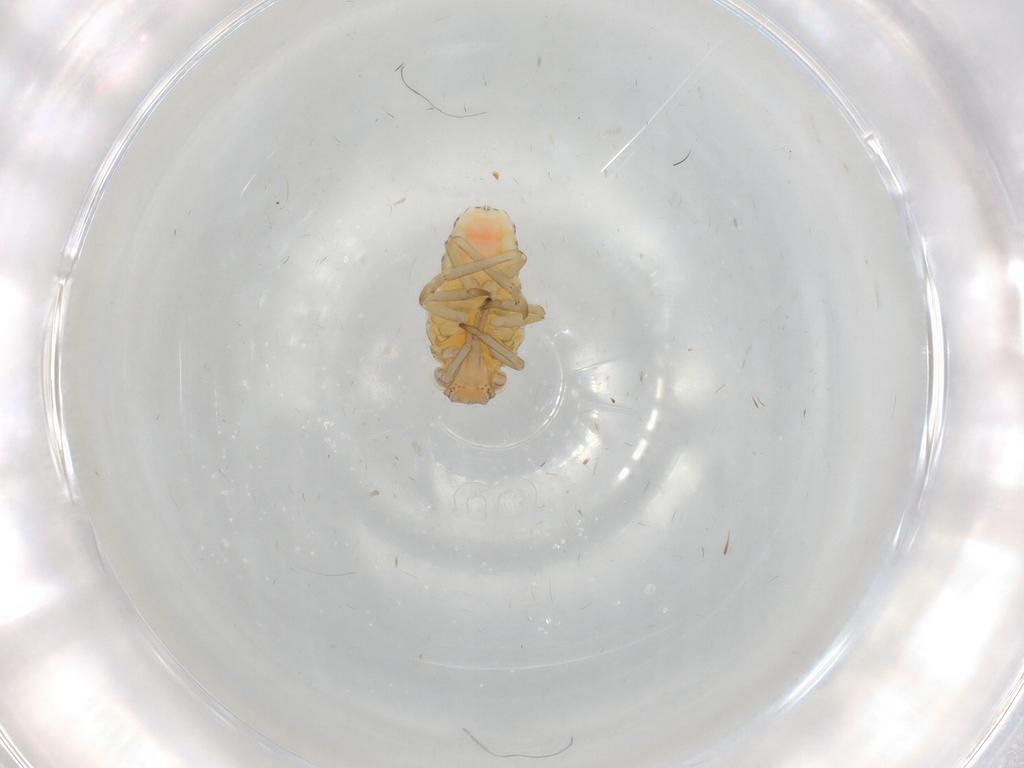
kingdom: Animalia
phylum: Arthropoda
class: Insecta
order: Hemiptera
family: Tropiduchidae
